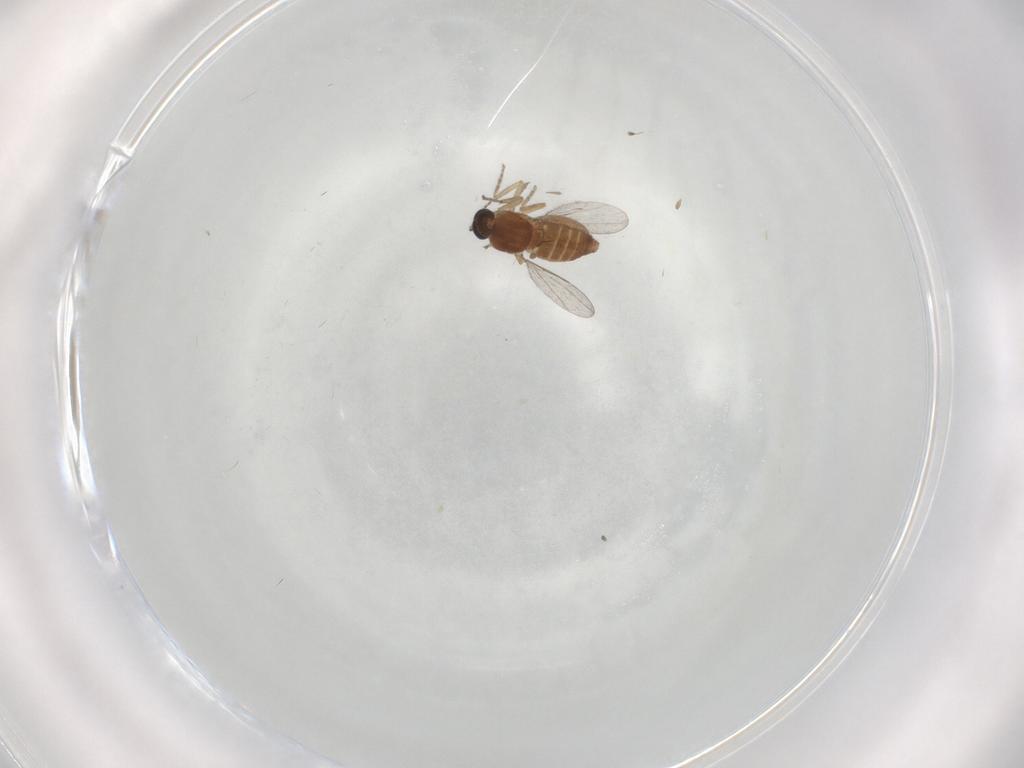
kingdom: Animalia
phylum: Arthropoda
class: Insecta
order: Diptera
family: Ceratopogonidae
